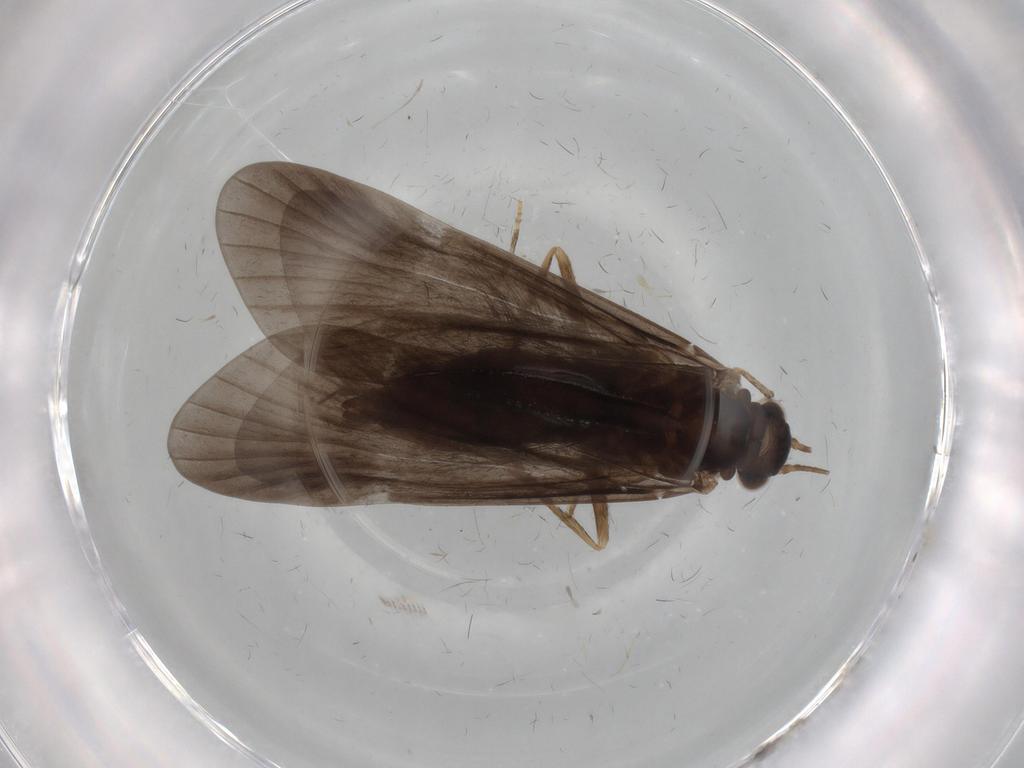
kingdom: Animalia
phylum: Arthropoda
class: Insecta
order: Trichoptera
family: Hydropsychidae
